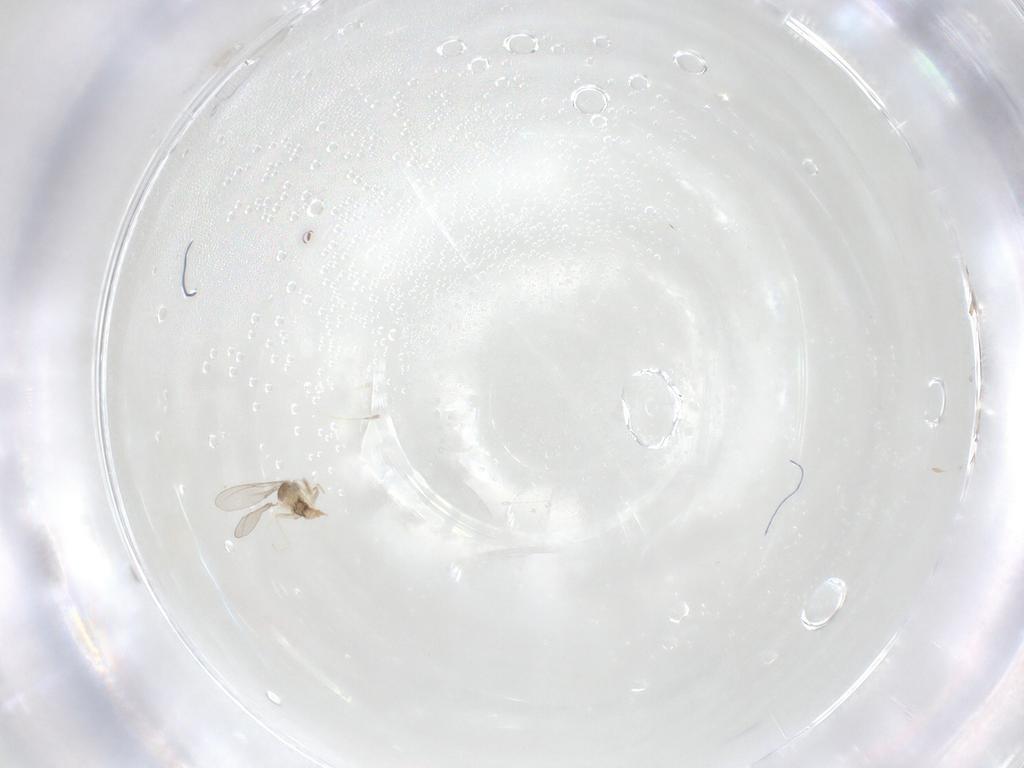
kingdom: Animalia
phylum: Arthropoda
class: Insecta
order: Diptera
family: Cecidomyiidae
